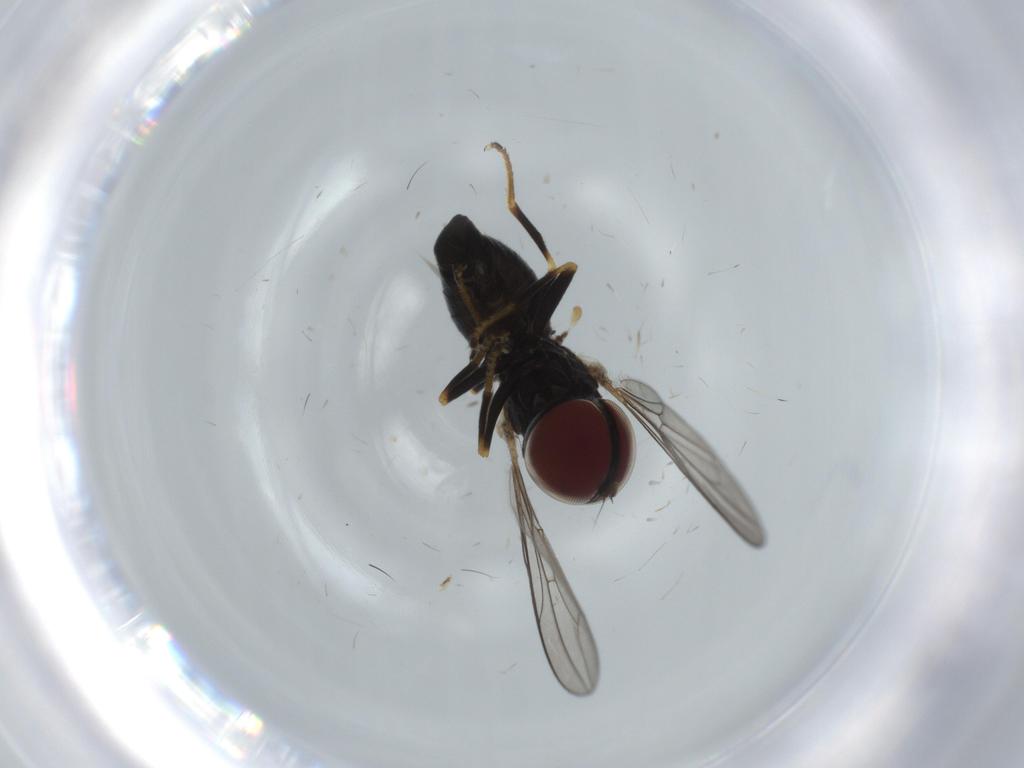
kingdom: Animalia
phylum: Arthropoda
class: Insecta
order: Diptera
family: Pipunculidae
